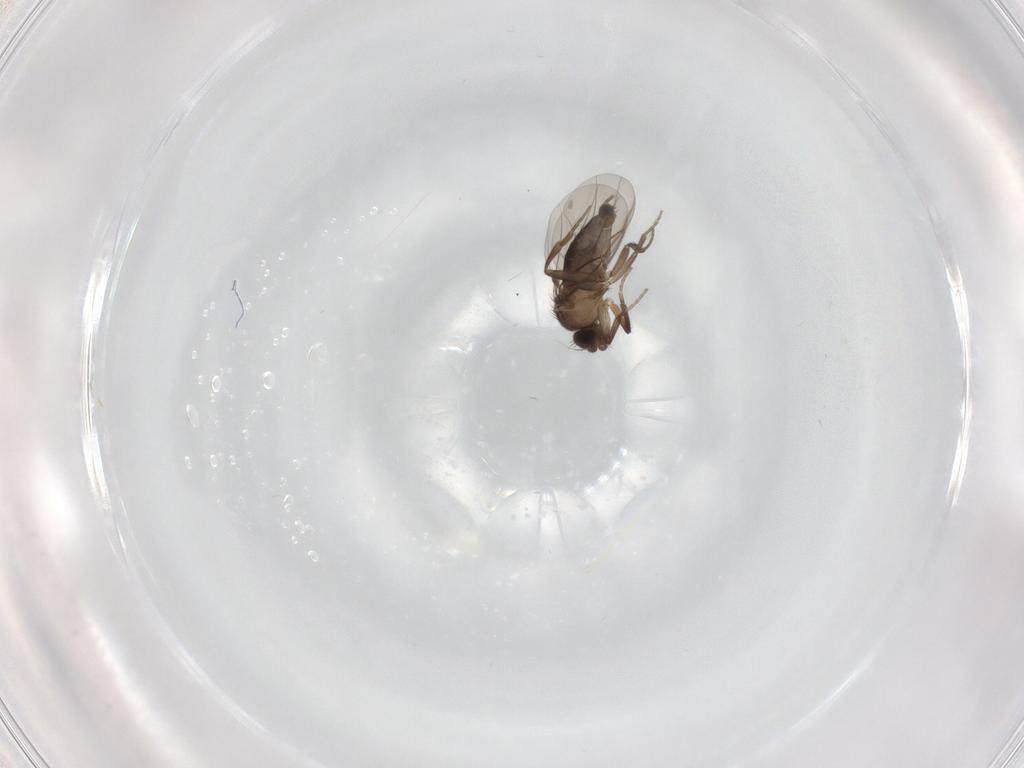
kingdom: Animalia
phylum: Arthropoda
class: Insecta
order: Diptera
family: Phoridae
